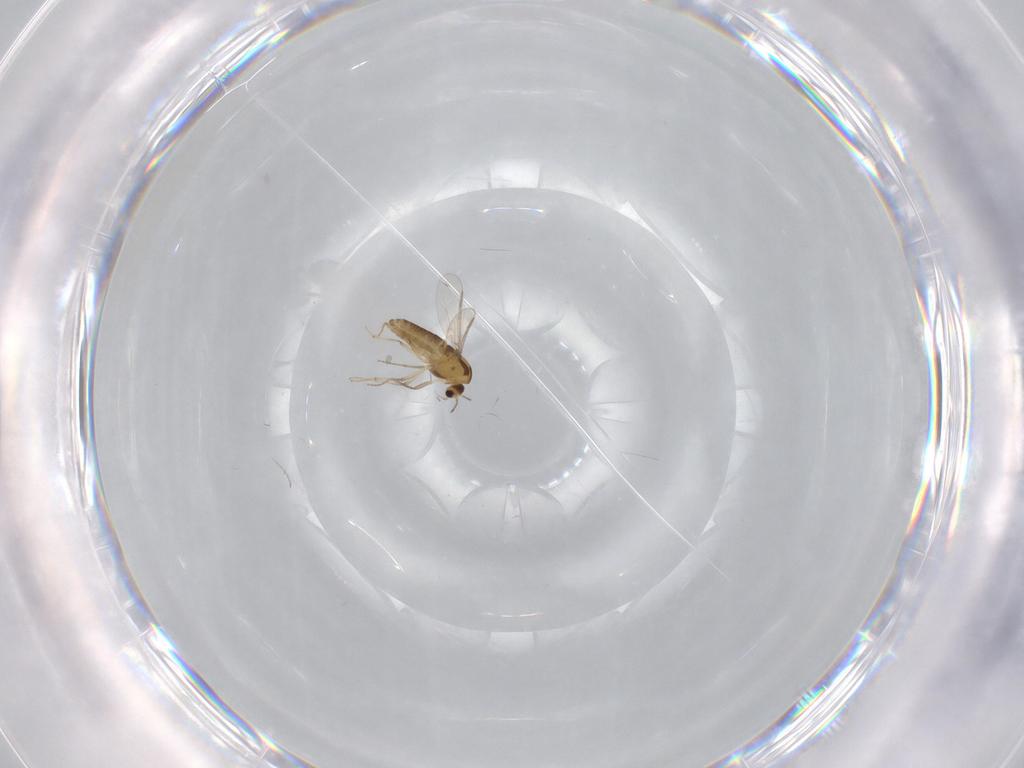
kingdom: Animalia
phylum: Arthropoda
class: Insecta
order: Diptera
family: Chironomidae
